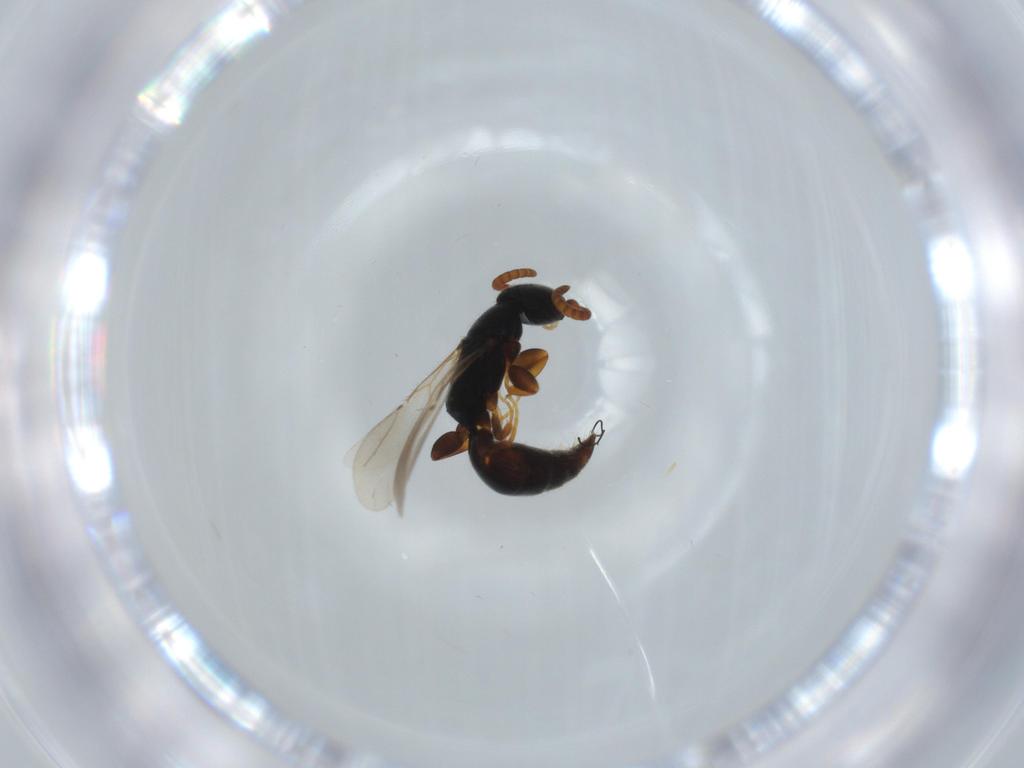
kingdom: Animalia
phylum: Arthropoda
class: Insecta
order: Hymenoptera
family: Bethylidae
